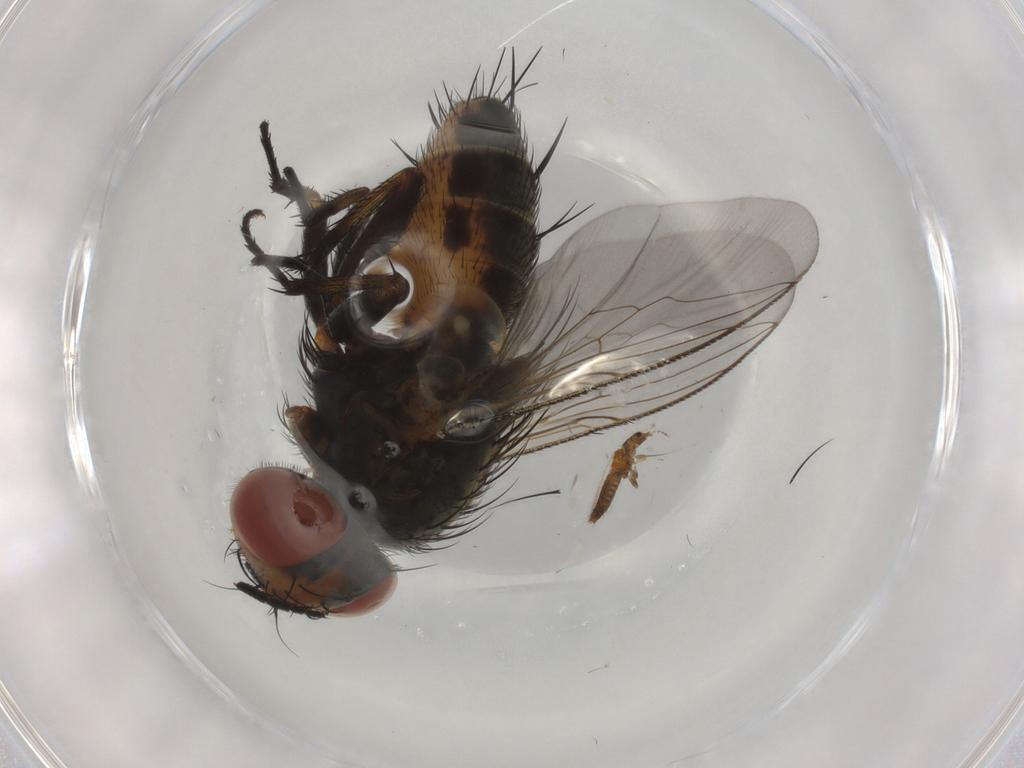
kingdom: Animalia
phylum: Arthropoda
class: Insecta
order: Diptera
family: Sarcophagidae
